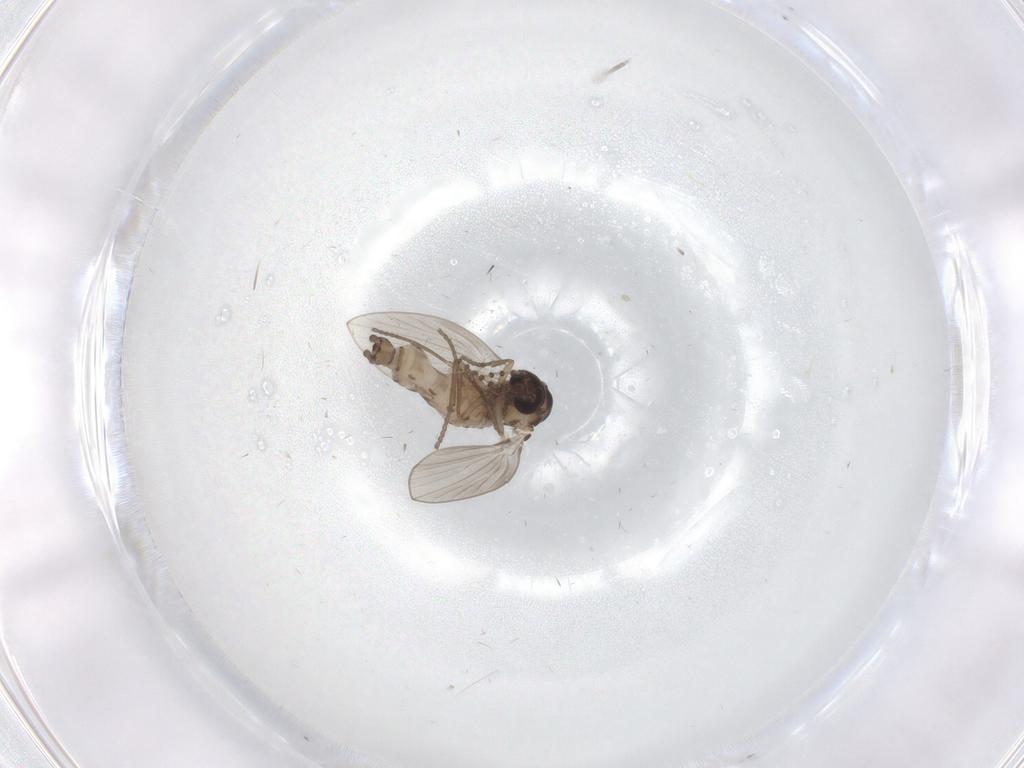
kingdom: Animalia
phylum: Arthropoda
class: Insecta
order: Diptera
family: Psychodidae
